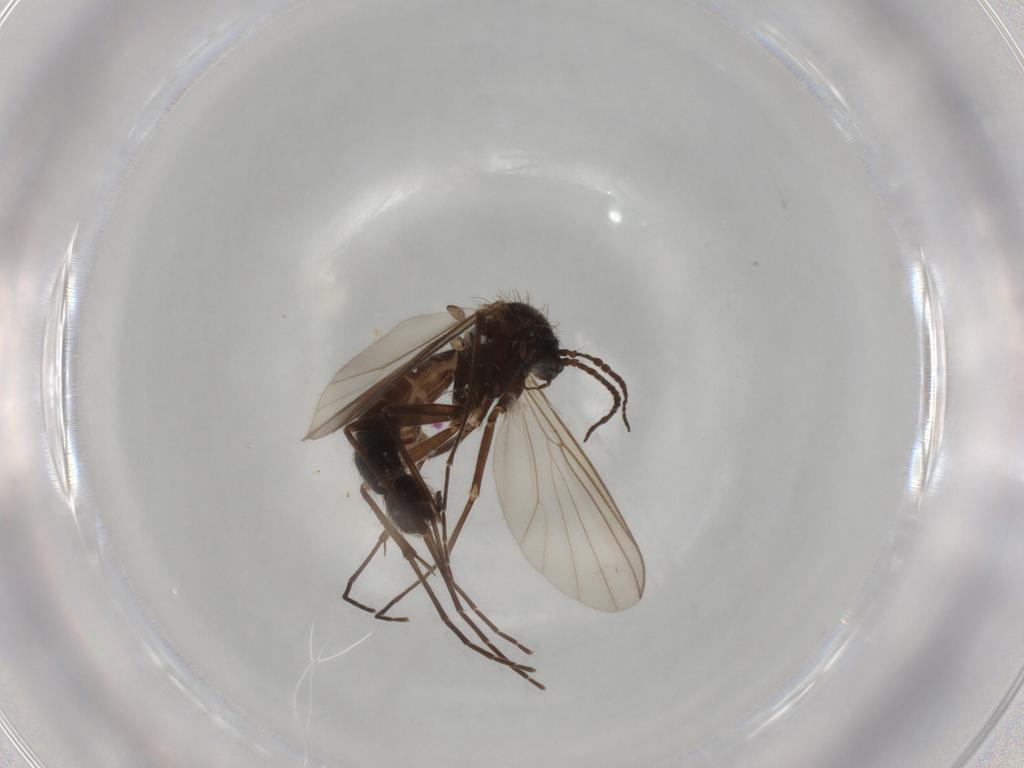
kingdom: Animalia
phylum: Arthropoda
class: Insecta
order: Diptera
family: Mycetophilidae
